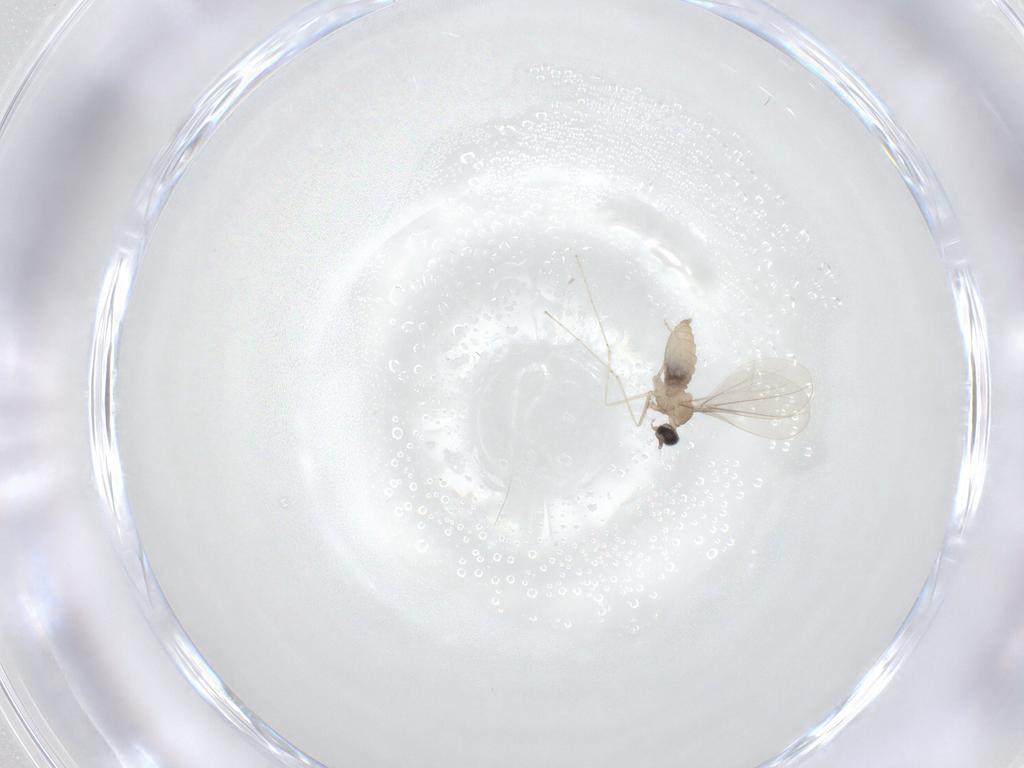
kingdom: Animalia
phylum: Arthropoda
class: Insecta
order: Diptera
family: Cecidomyiidae
